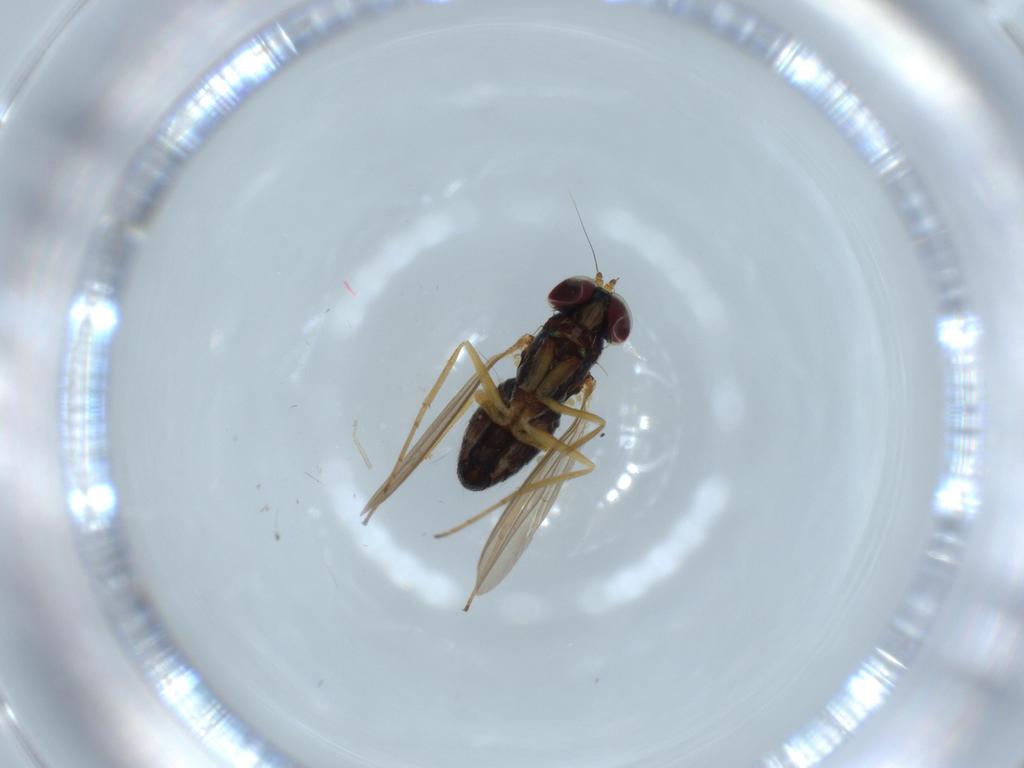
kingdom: Animalia
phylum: Arthropoda
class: Insecta
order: Diptera
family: Dolichopodidae
